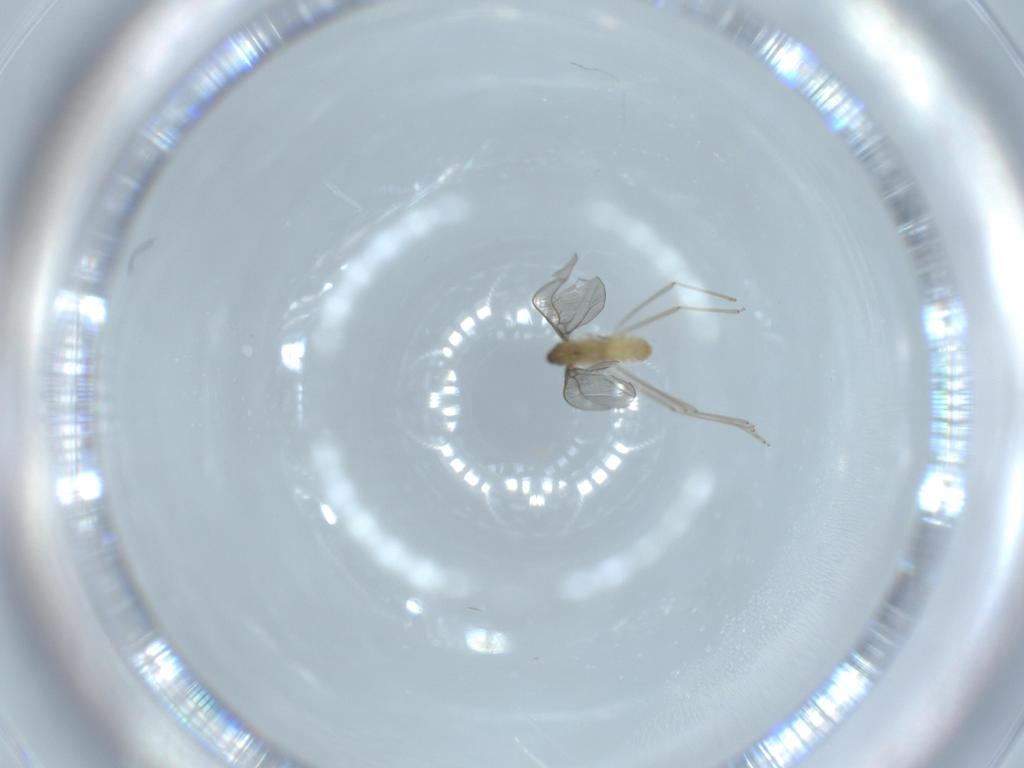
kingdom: Animalia
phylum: Arthropoda
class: Insecta
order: Diptera
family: Cecidomyiidae
